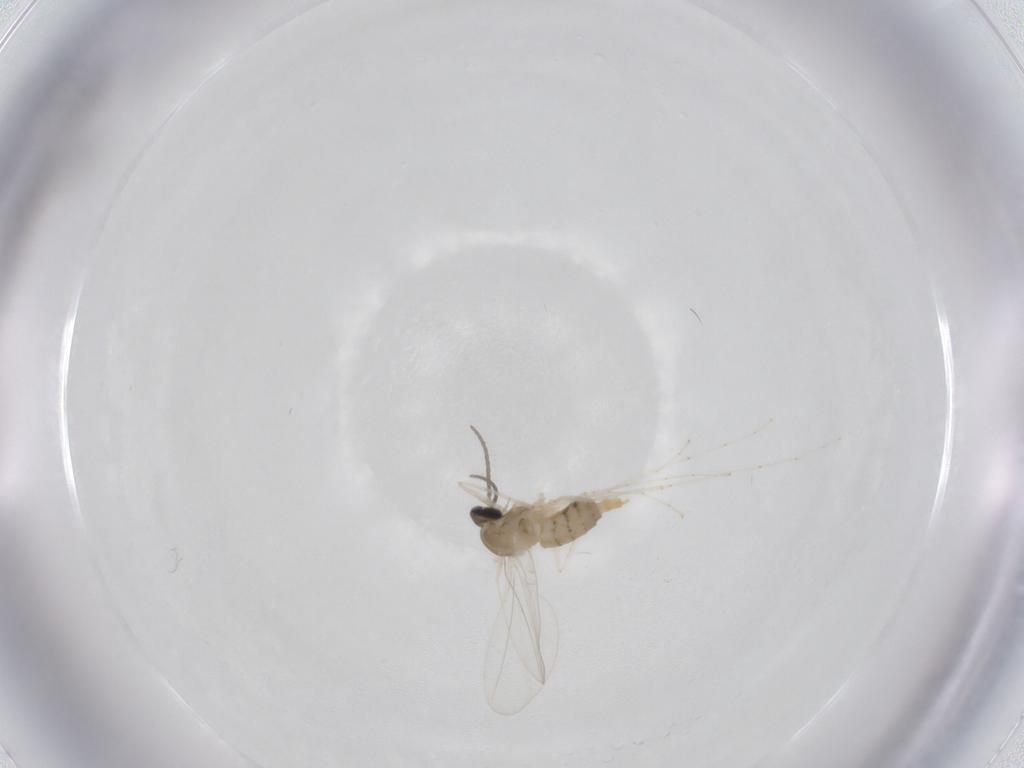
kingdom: Animalia
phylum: Arthropoda
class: Insecta
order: Diptera
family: Cecidomyiidae
